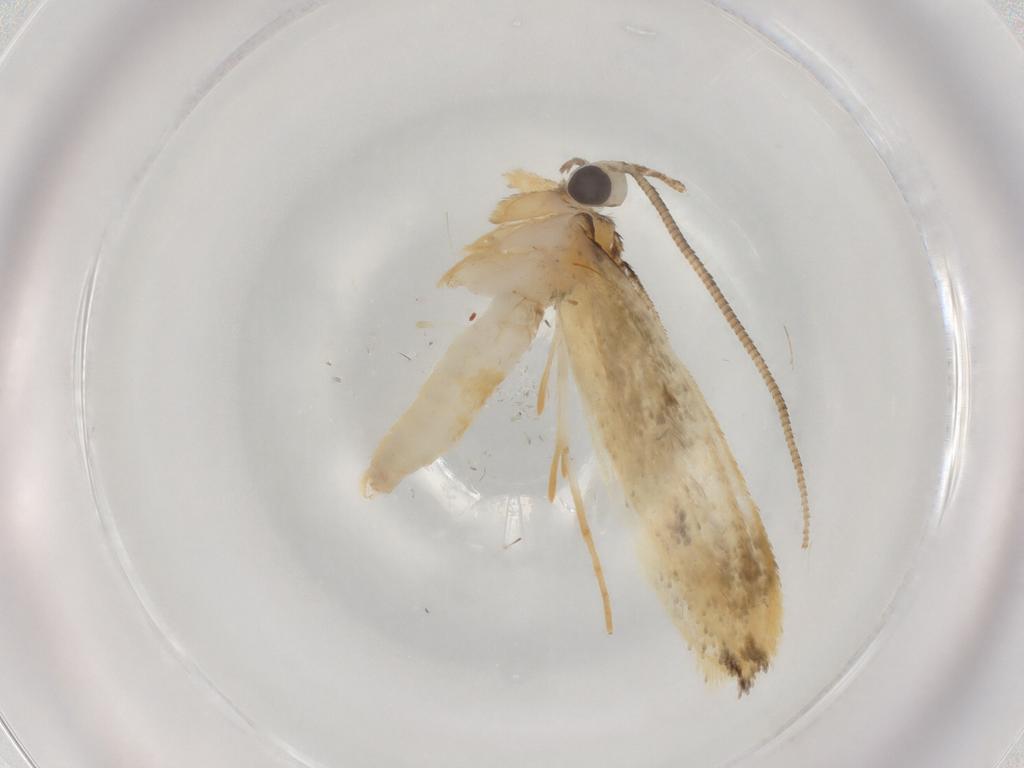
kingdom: Animalia
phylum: Arthropoda
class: Insecta
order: Lepidoptera
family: Tineidae
